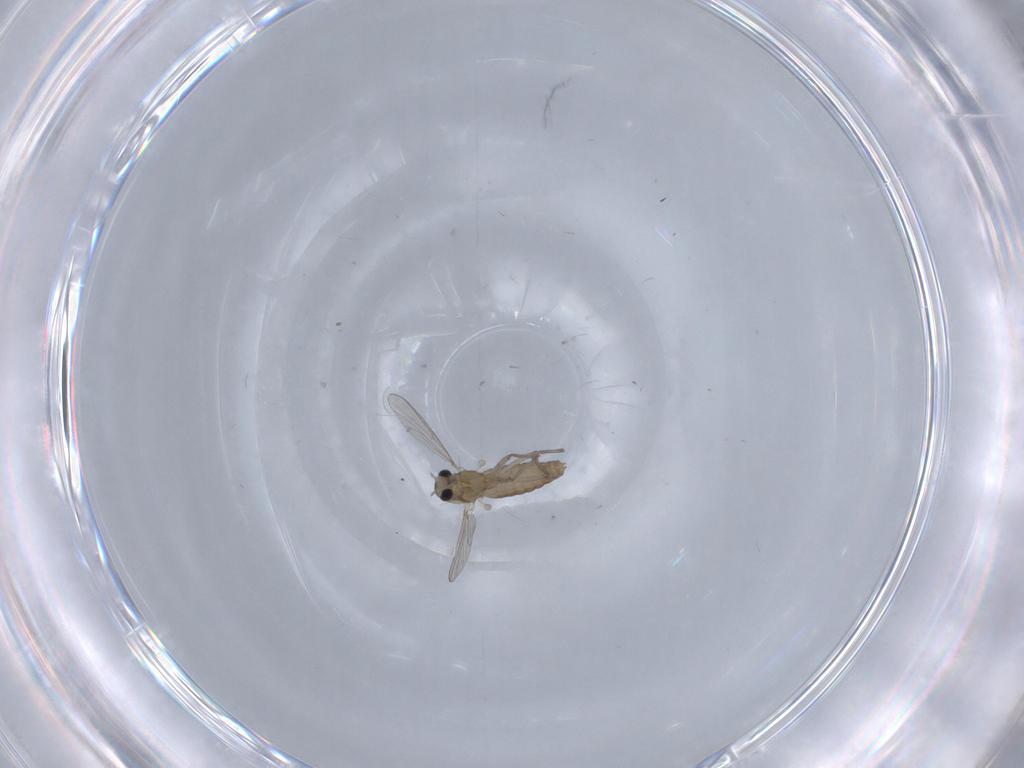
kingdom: Animalia
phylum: Arthropoda
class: Insecta
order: Diptera
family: Chironomidae
